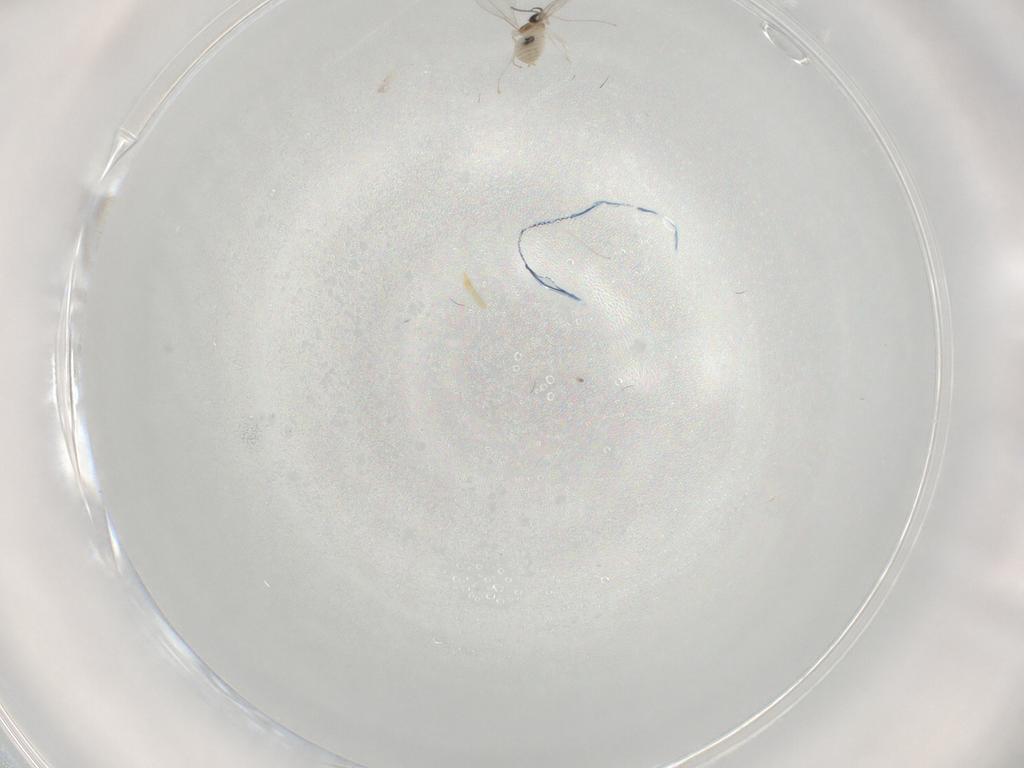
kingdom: Animalia
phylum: Arthropoda
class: Insecta
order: Diptera
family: Cecidomyiidae
